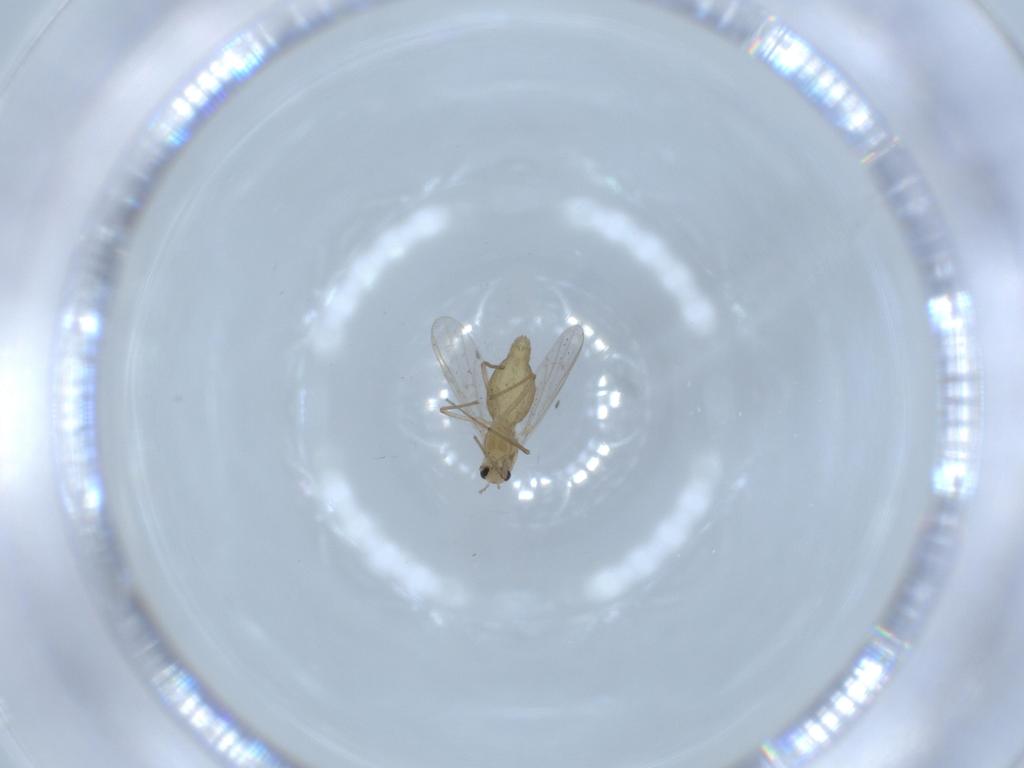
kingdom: Animalia
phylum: Arthropoda
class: Insecta
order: Diptera
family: Chironomidae
